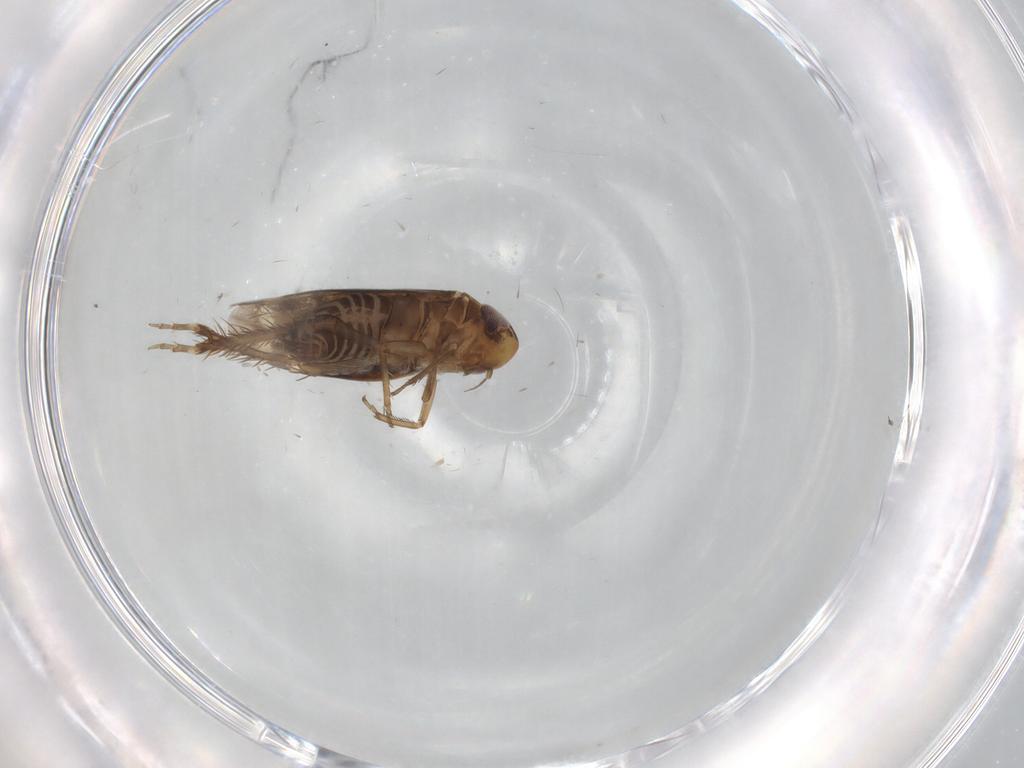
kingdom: Animalia
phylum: Arthropoda
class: Insecta
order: Hemiptera
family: Cicadellidae
